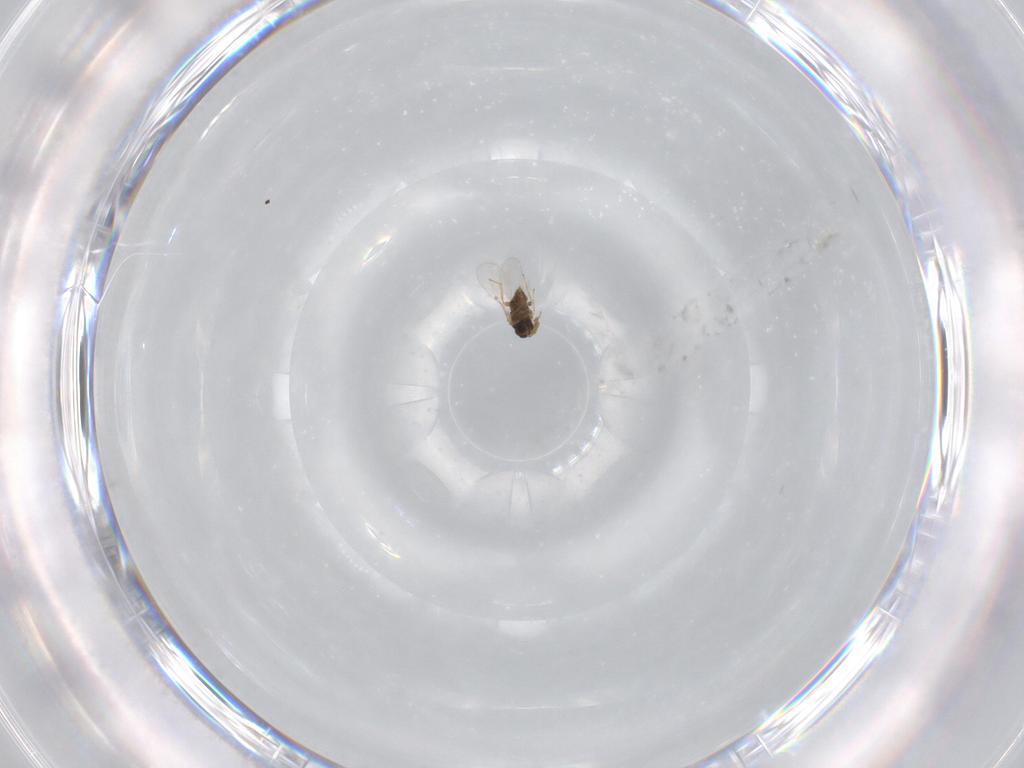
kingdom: Animalia
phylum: Arthropoda
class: Insecta
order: Hymenoptera
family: Encyrtidae
